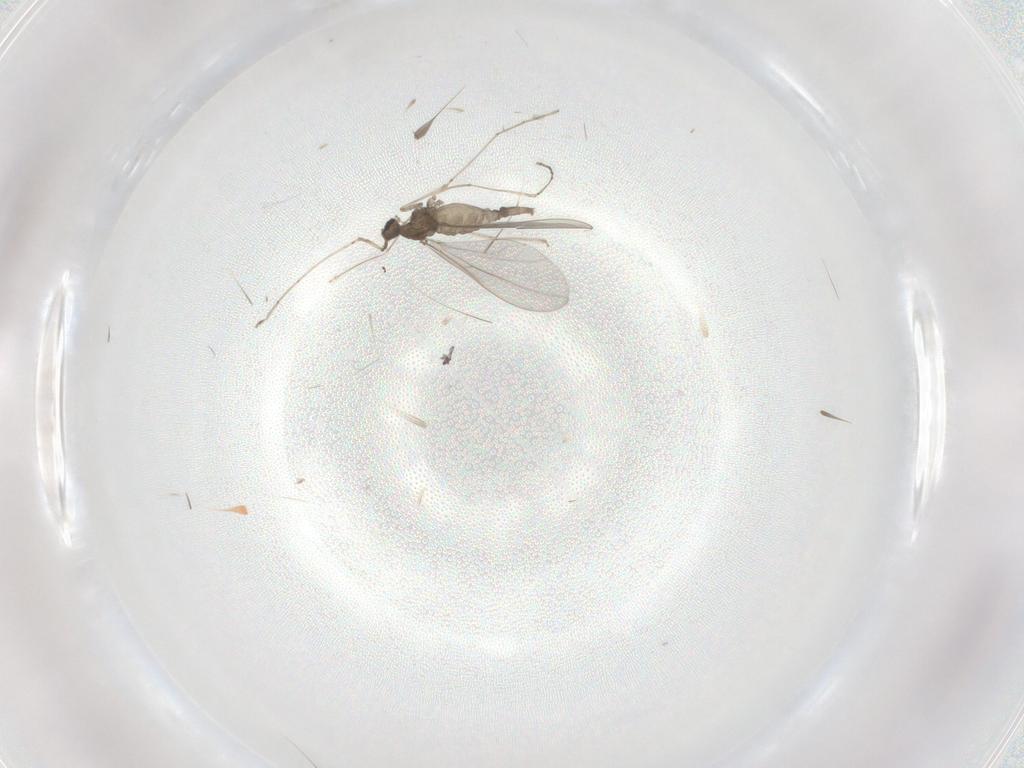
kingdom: Animalia
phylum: Arthropoda
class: Insecta
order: Diptera
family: Cecidomyiidae
